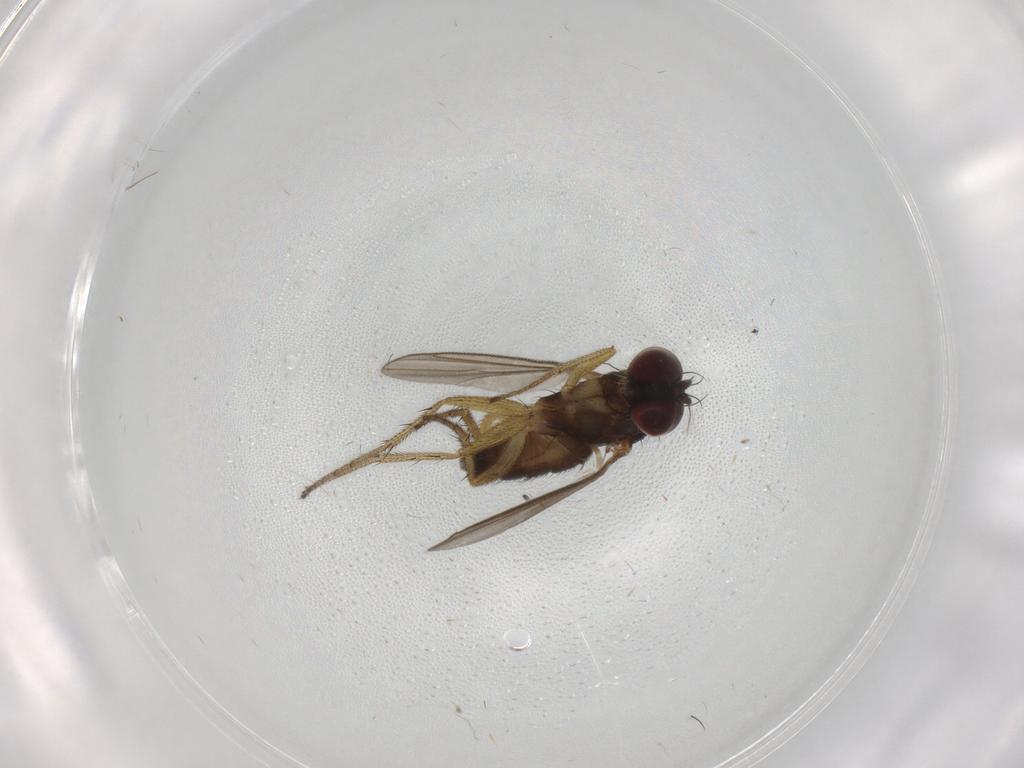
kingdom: Animalia
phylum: Arthropoda
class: Insecta
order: Diptera
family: Chironomidae
